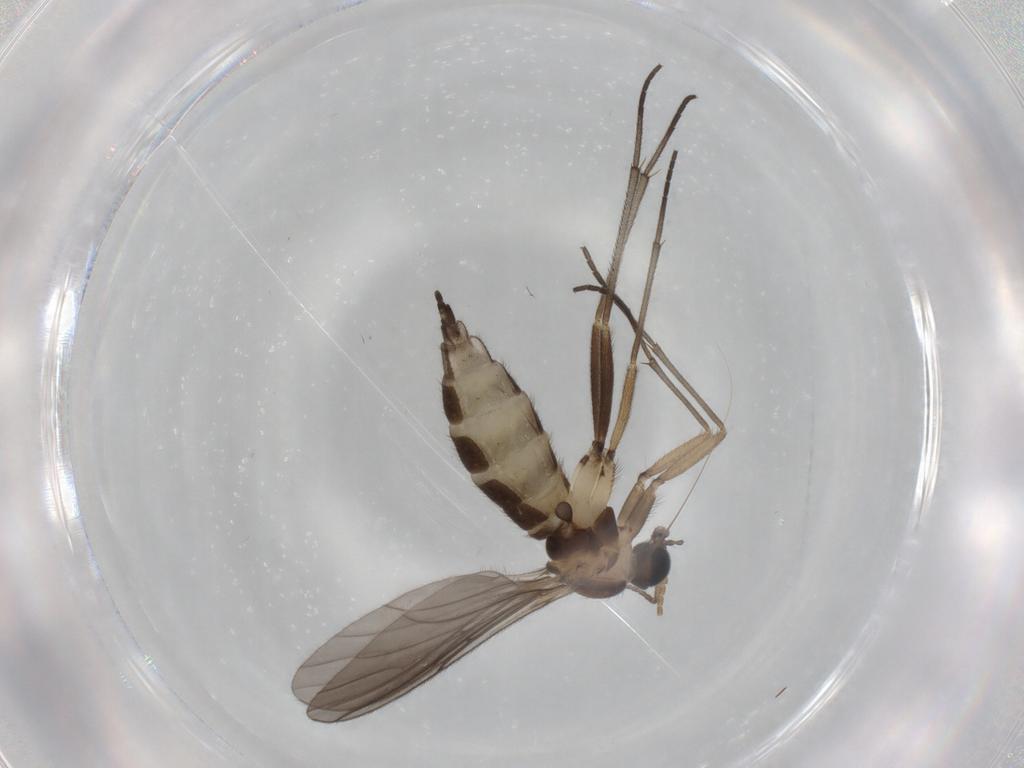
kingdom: Animalia
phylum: Arthropoda
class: Insecta
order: Diptera
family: Sciaridae
